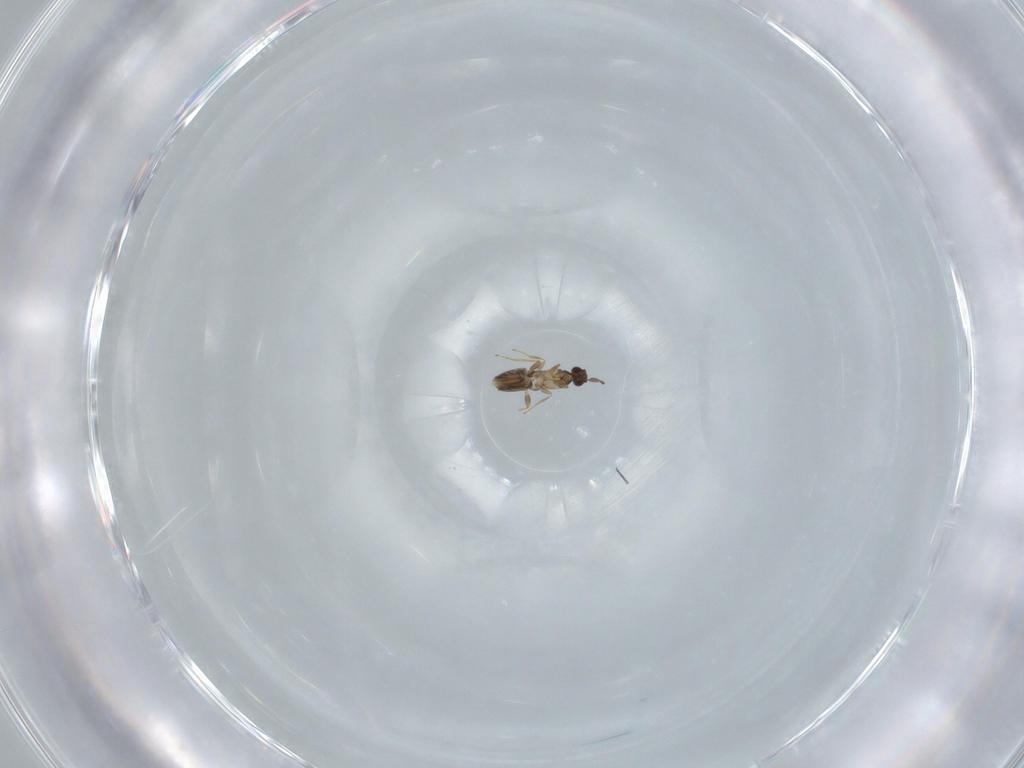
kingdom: Animalia
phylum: Arthropoda
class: Insecta
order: Hymenoptera
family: Mymaridae
